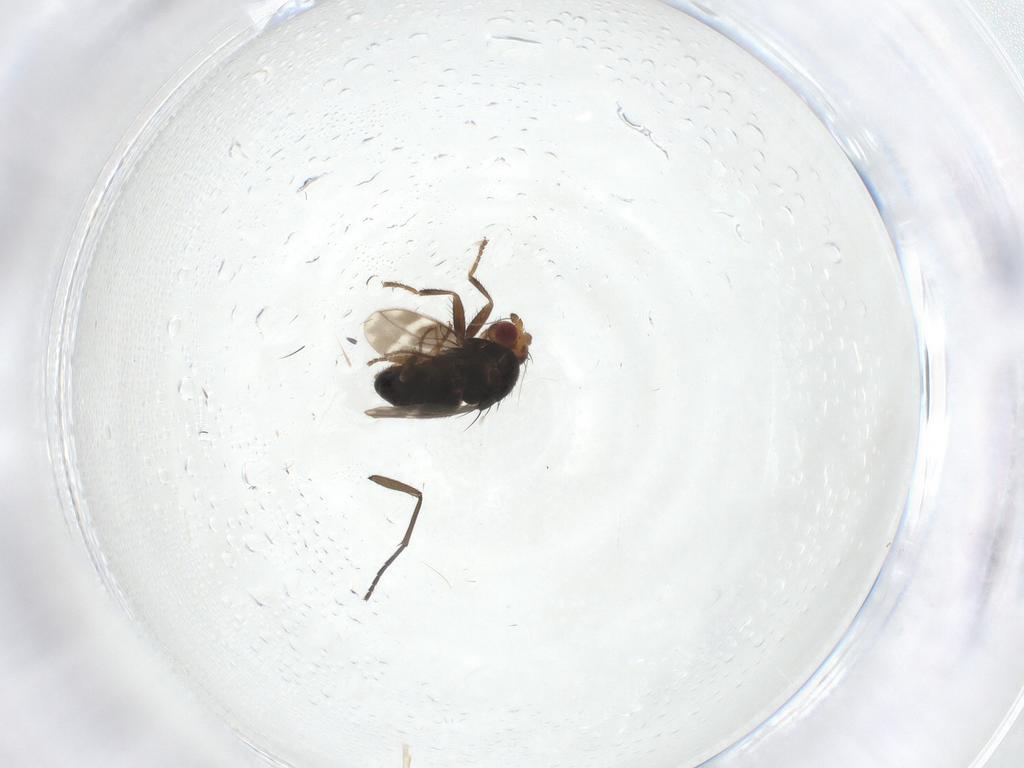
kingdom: Animalia
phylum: Arthropoda
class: Insecta
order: Diptera
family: Sphaeroceridae
